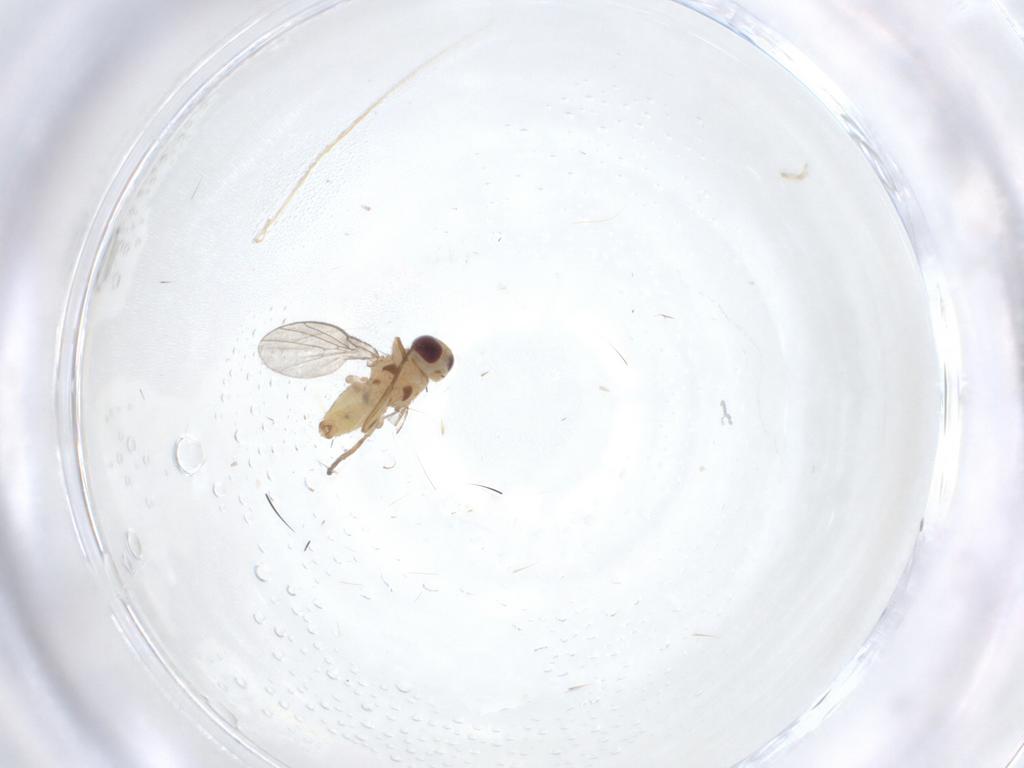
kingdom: Animalia
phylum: Arthropoda
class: Insecta
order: Diptera
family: Agromyzidae
